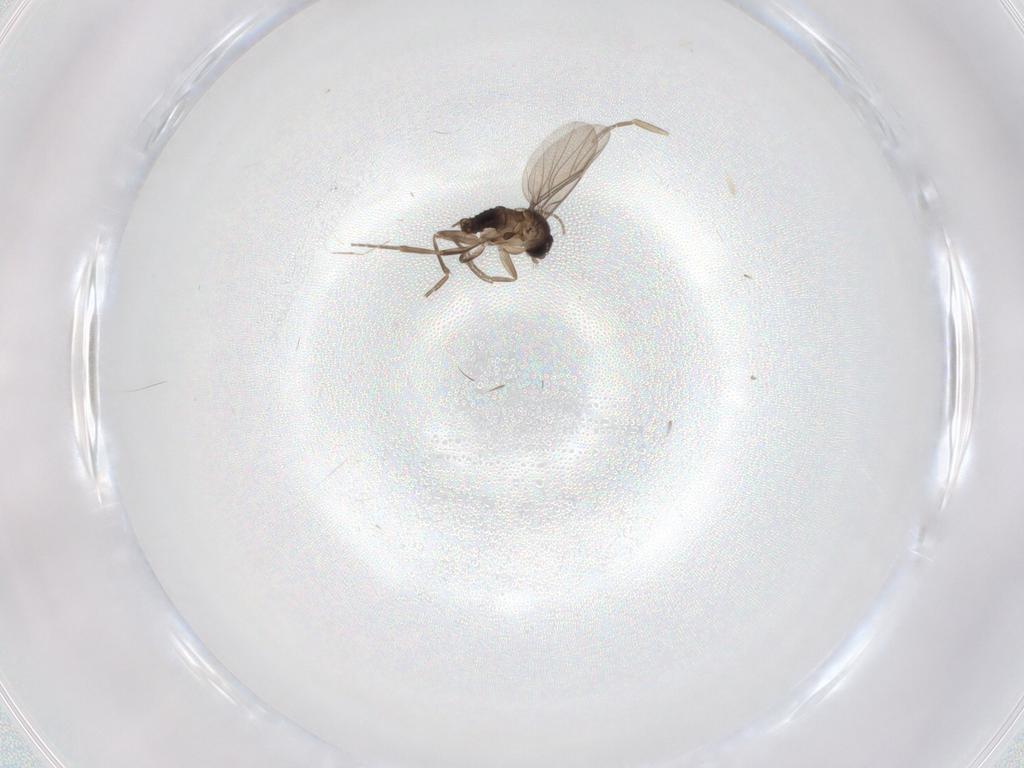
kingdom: Animalia
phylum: Arthropoda
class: Insecta
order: Diptera
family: Phoridae
